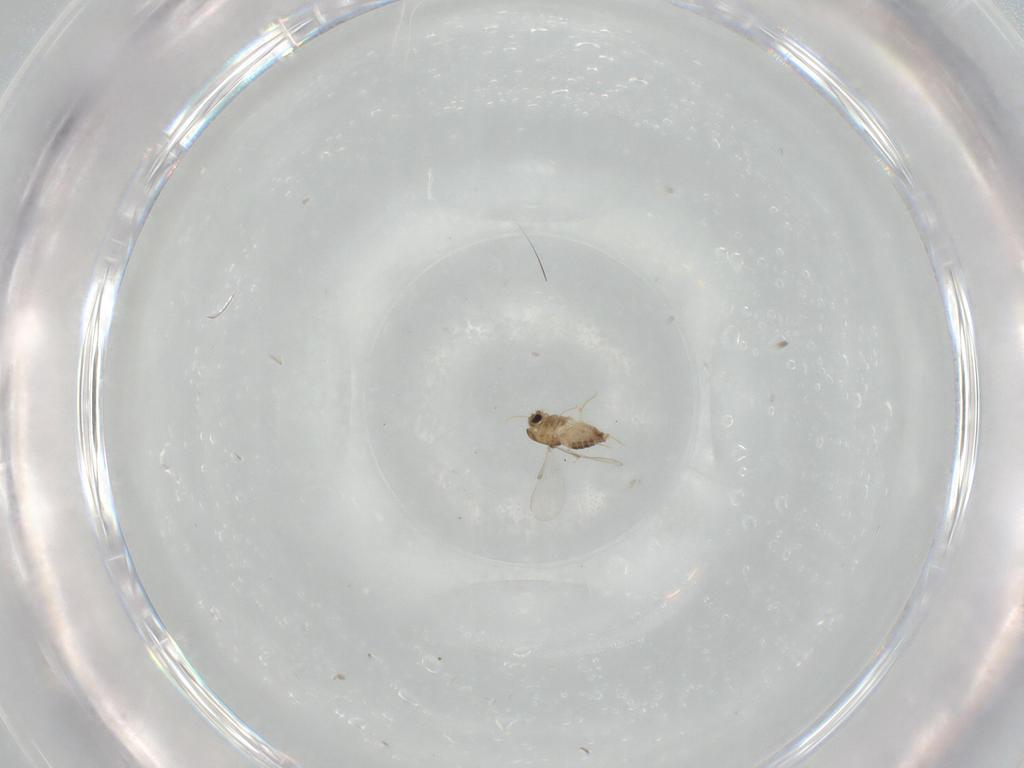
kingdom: Animalia
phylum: Arthropoda
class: Insecta
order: Diptera
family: Chironomidae
